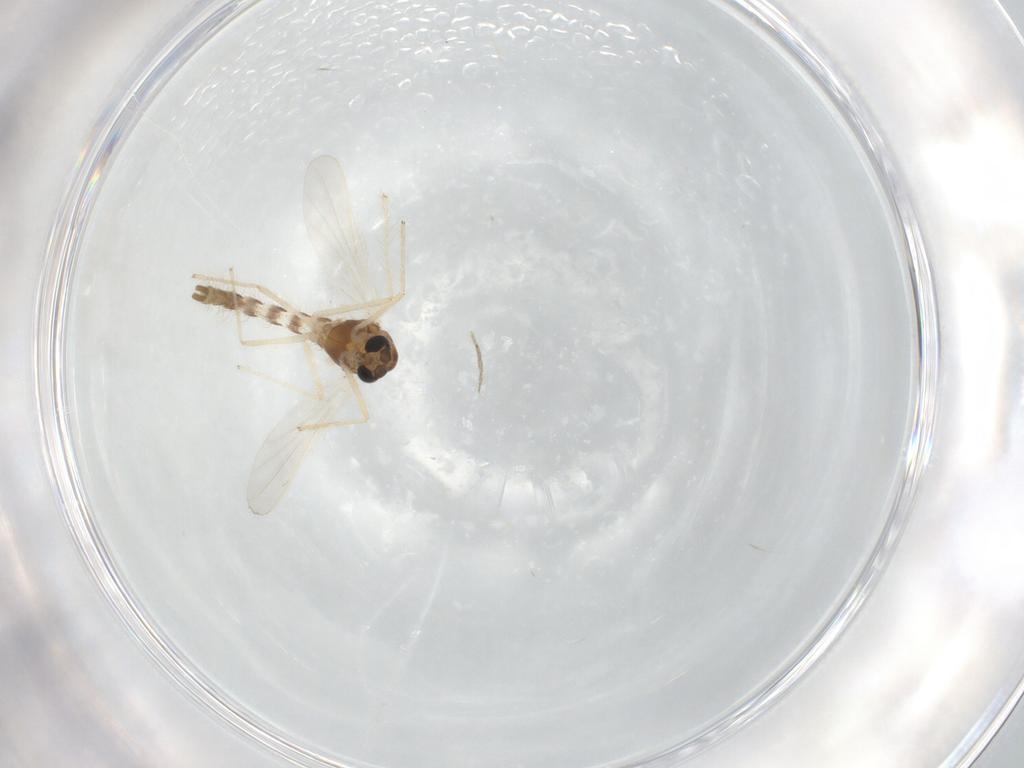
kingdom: Animalia
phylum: Arthropoda
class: Insecta
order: Diptera
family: Chironomidae
